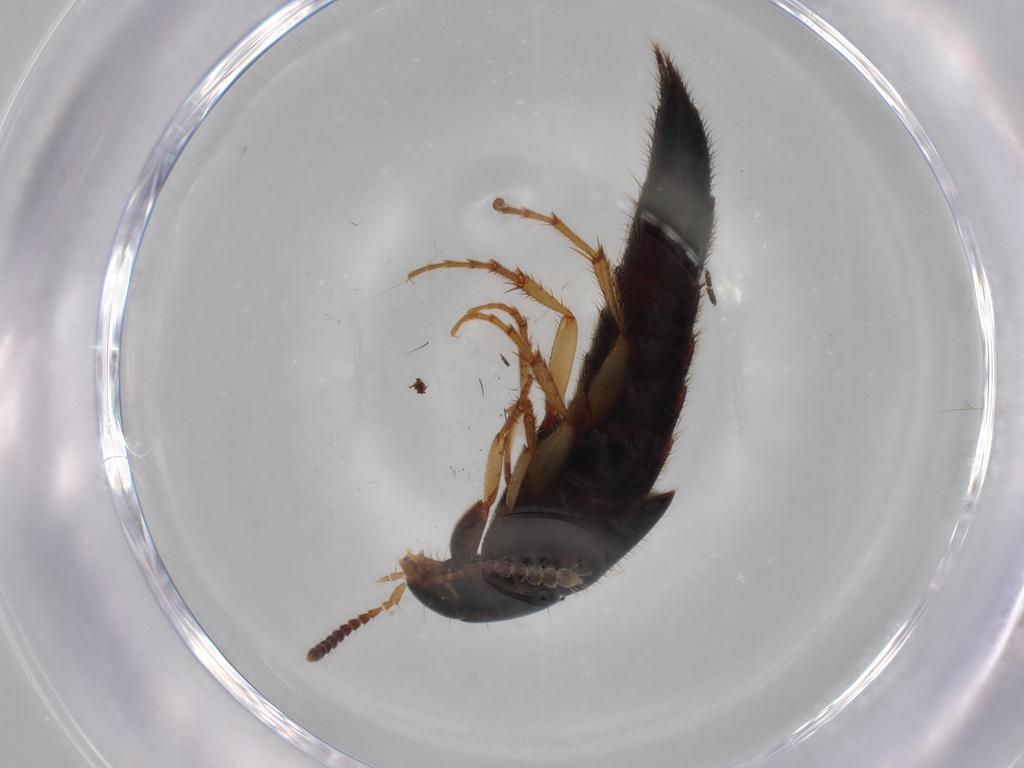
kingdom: Animalia
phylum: Arthropoda
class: Insecta
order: Coleoptera
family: Staphylinidae
